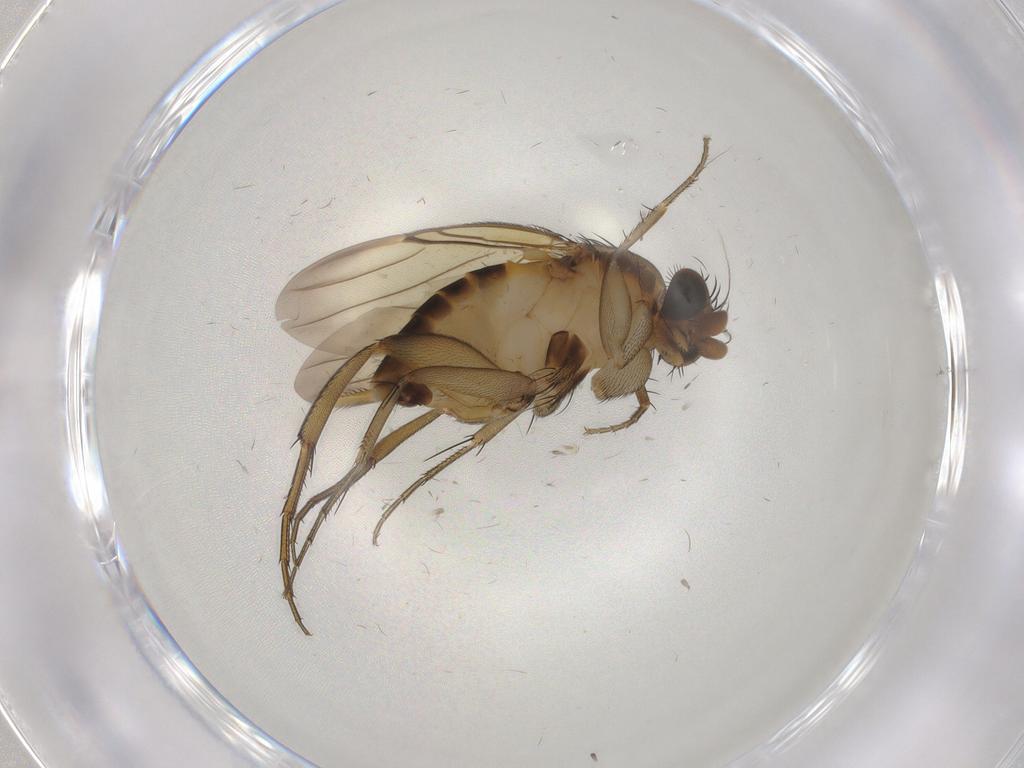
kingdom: Animalia
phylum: Arthropoda
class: Insecta
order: Diptera
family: Phoridae
